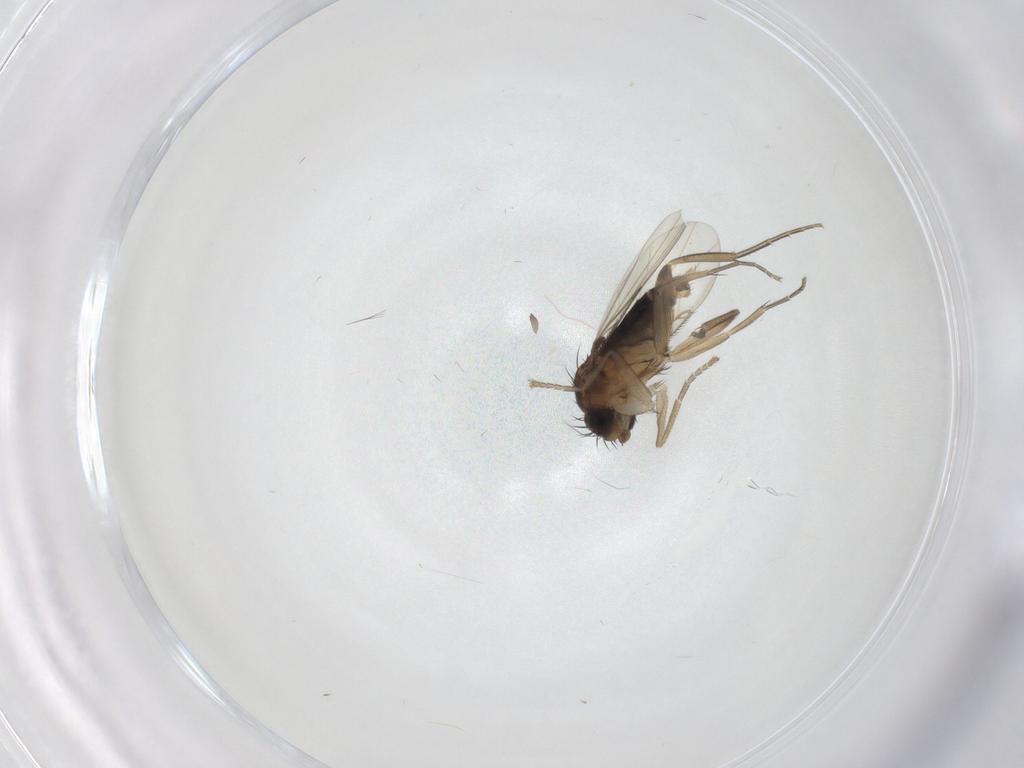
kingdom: Animalia
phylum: Arthropoda
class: Insecta
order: Diptera
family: Phoridae
